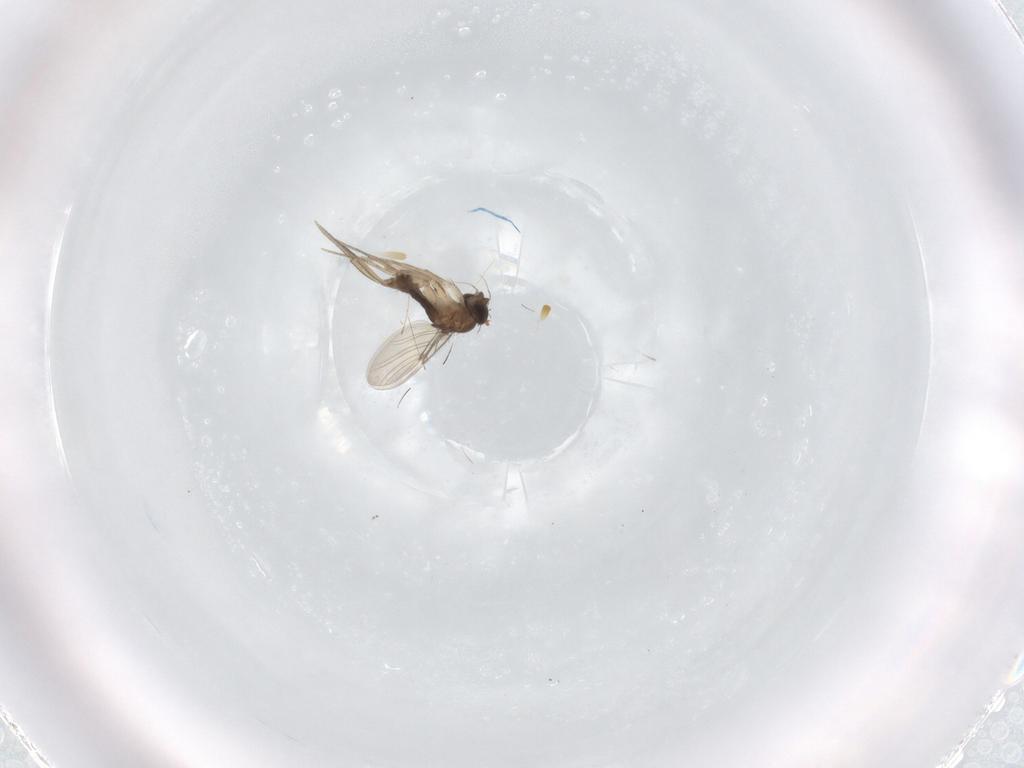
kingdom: Animalia
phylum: Arthropoda
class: Insecta
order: Diptera
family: Phoridae
